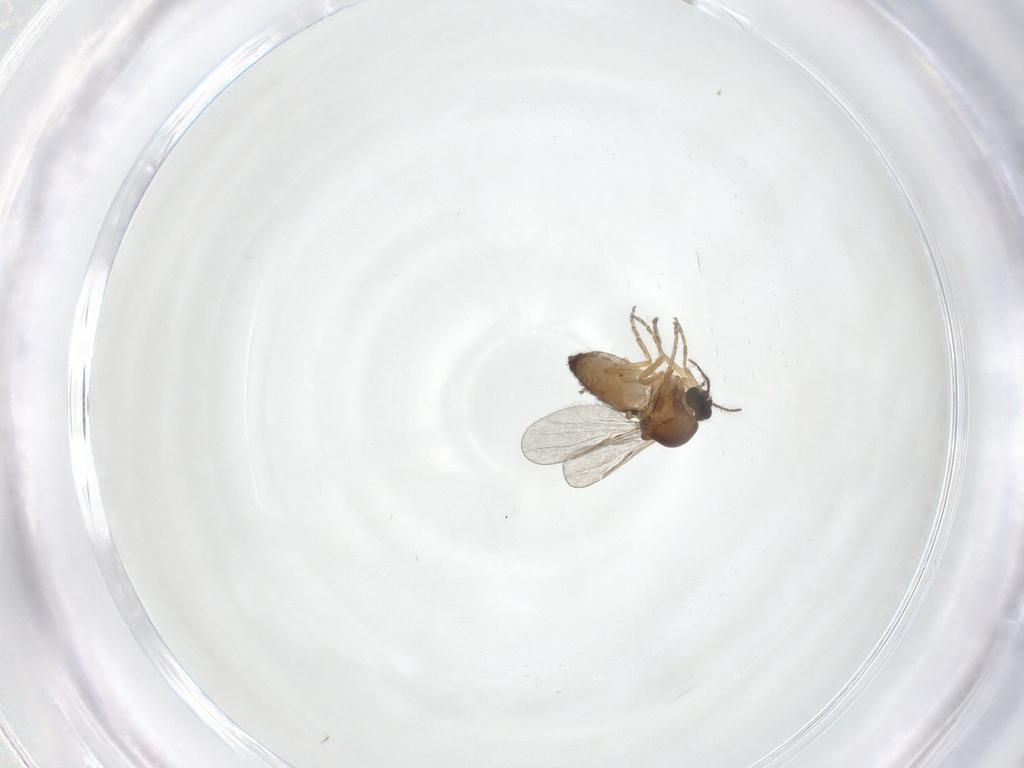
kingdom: Animalia
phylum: Arthropoda
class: Insecta
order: Diptera
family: Ceratopogonidae
